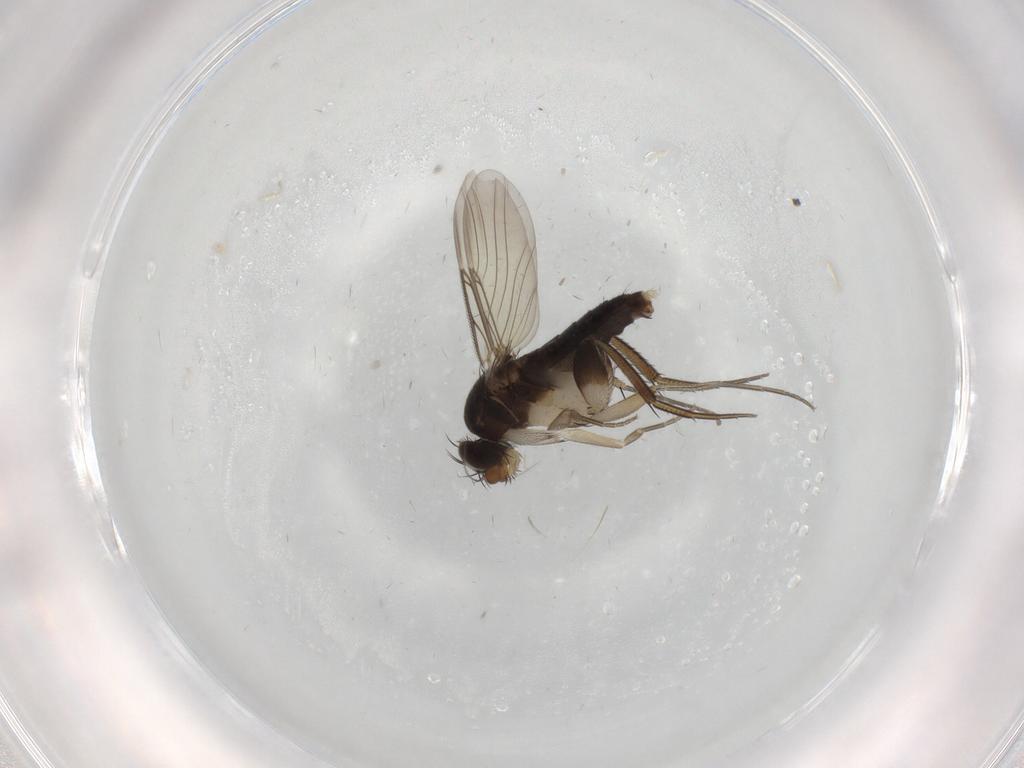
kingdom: Animalia
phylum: Arthropoda
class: Insecta
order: Diptera
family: Phoridae
